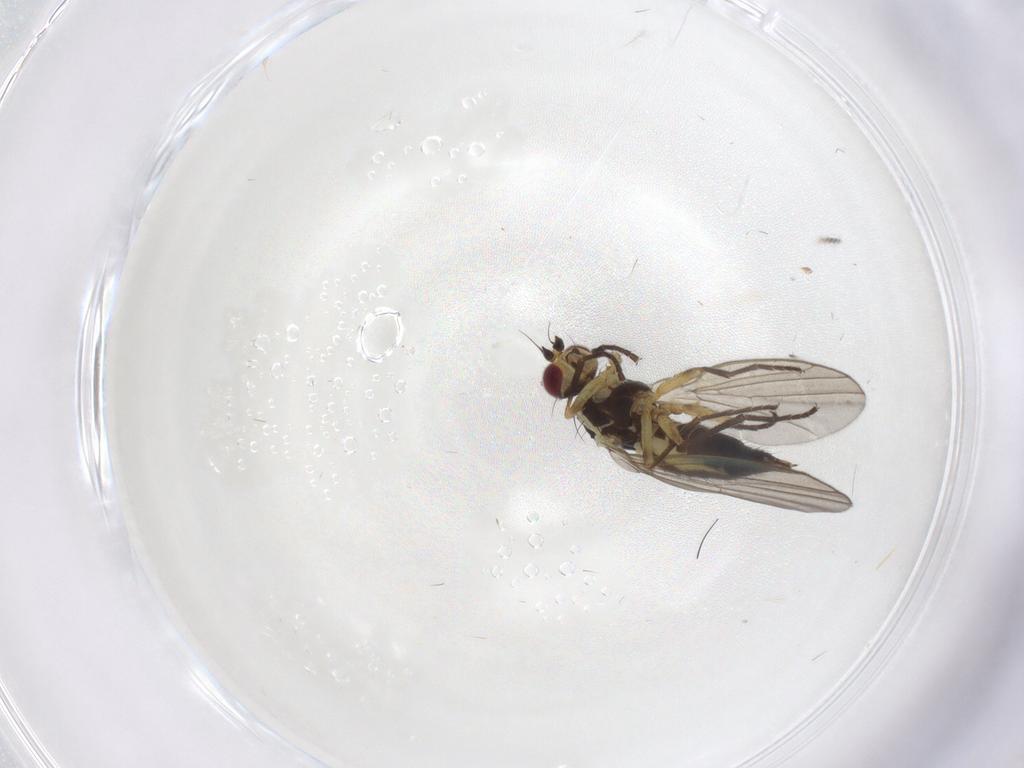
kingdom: Animalia
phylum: Arthropoda
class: Insecta
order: Diptera
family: Agromyzidae
